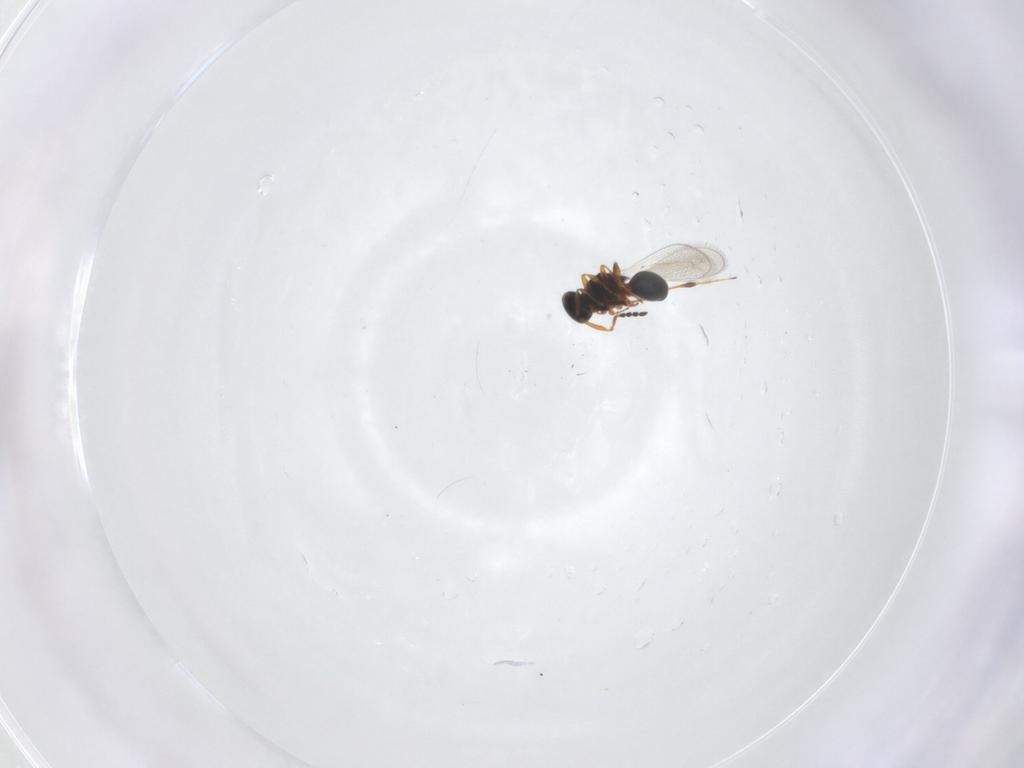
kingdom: Animalia
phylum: Arthropoda
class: Insecta
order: Hymenoptera
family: Platygastridae
